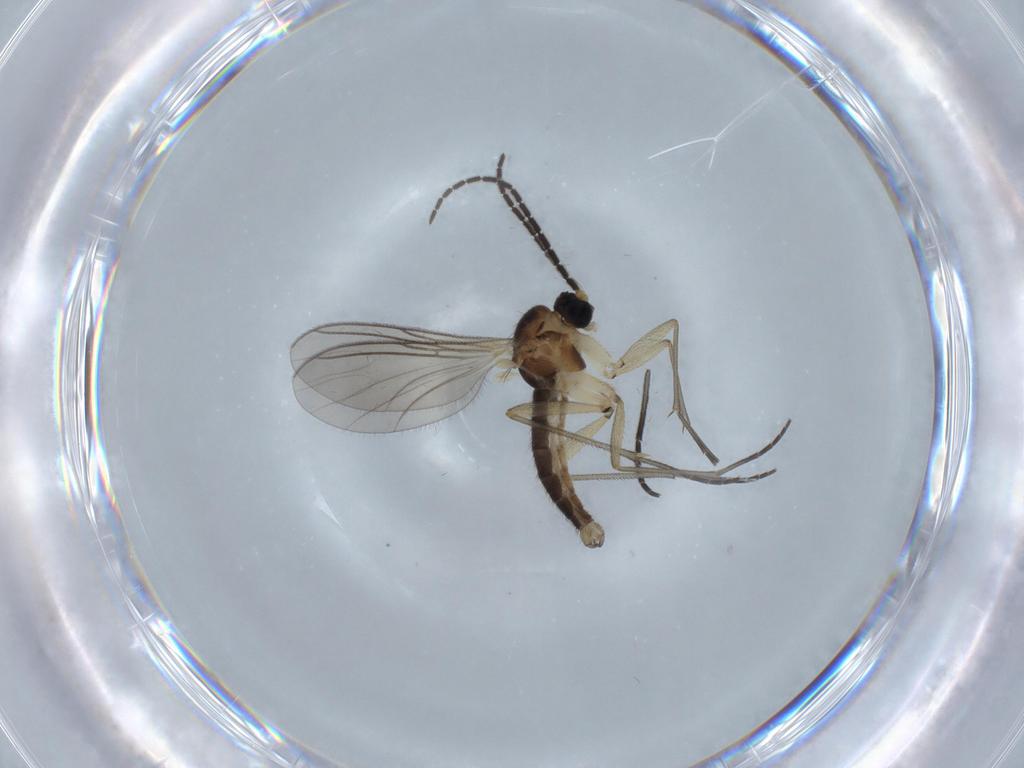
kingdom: Animalia
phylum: Arthropoda
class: Insecta
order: Diptera
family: Sciaridae
